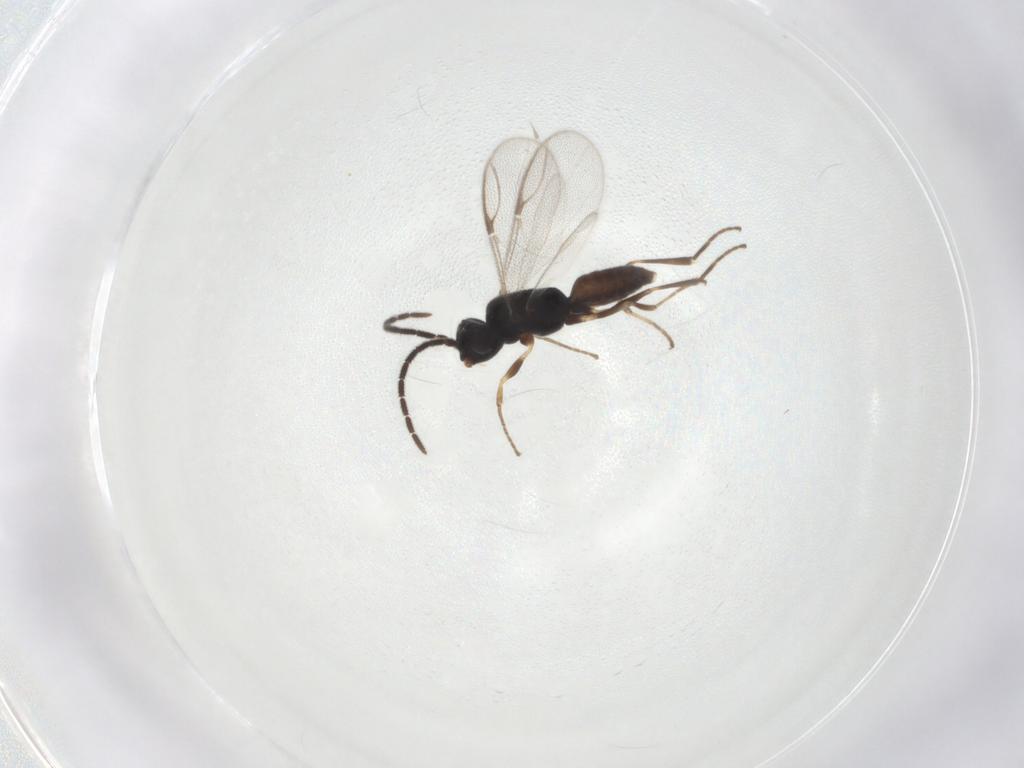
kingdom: Animalia
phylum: Arthropoda
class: Insecta
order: Hymenoptera
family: Dryinidae
